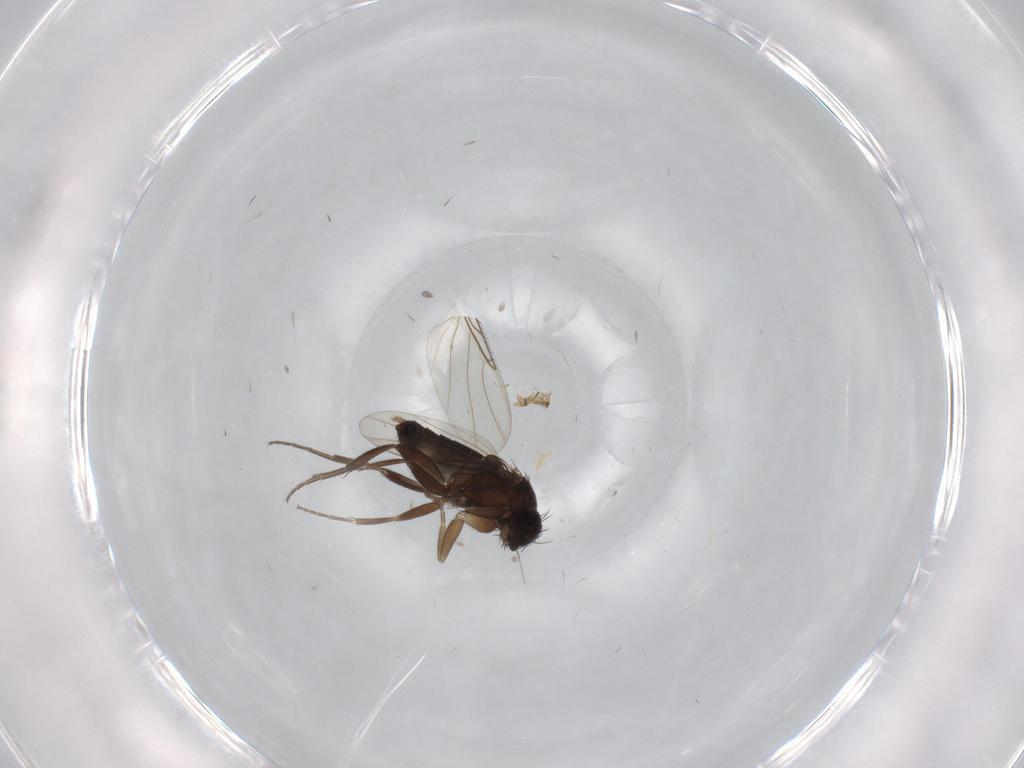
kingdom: Animalia
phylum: Arthropoda
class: Insecta
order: Diptera
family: Phoridae
